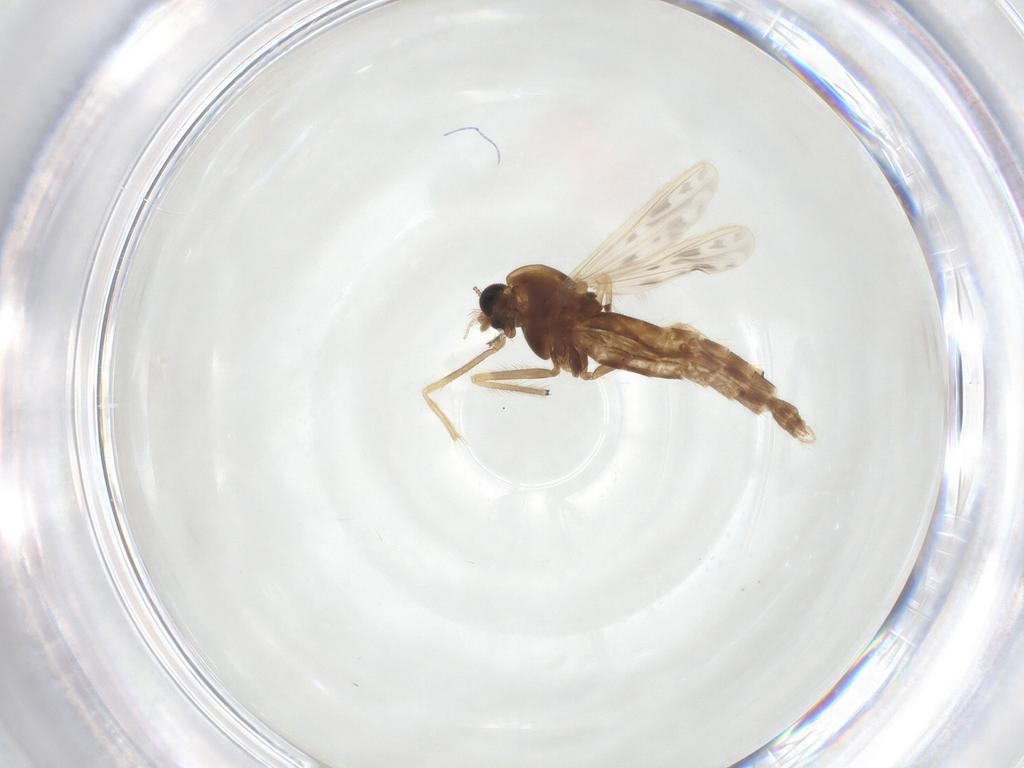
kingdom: Animalia
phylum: Arthropoda
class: Insecta
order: Diptera
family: Chironomidae
